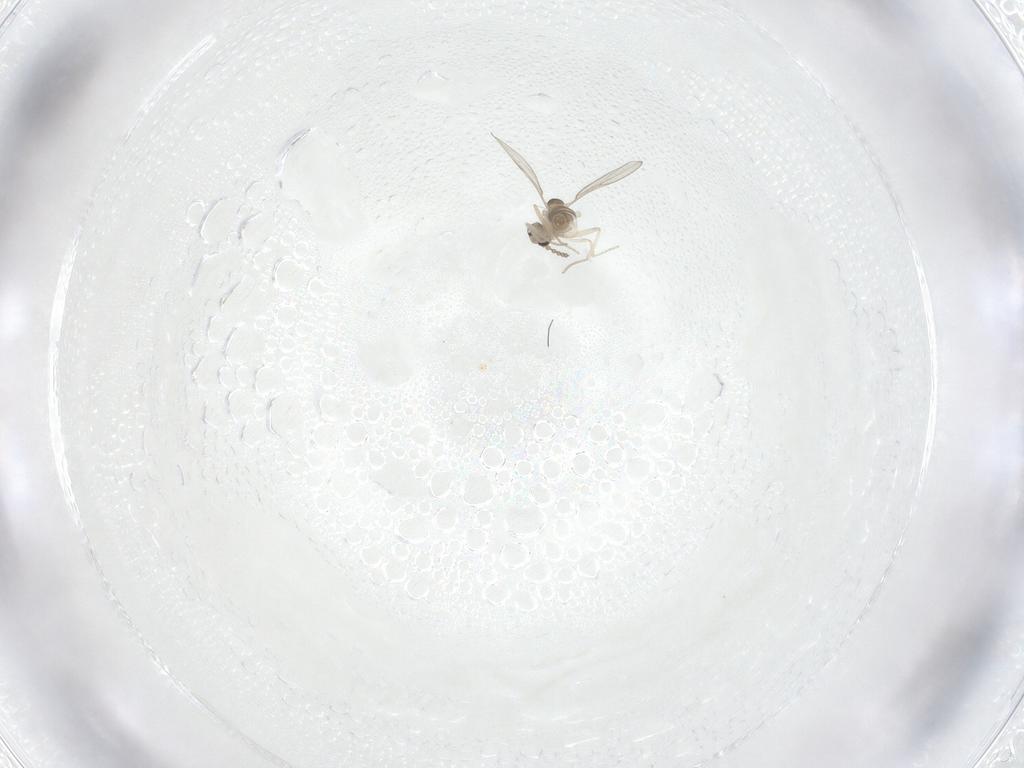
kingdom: Animalia
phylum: Arthropoda
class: Insecta
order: Diptera
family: Cecidomyiidae
